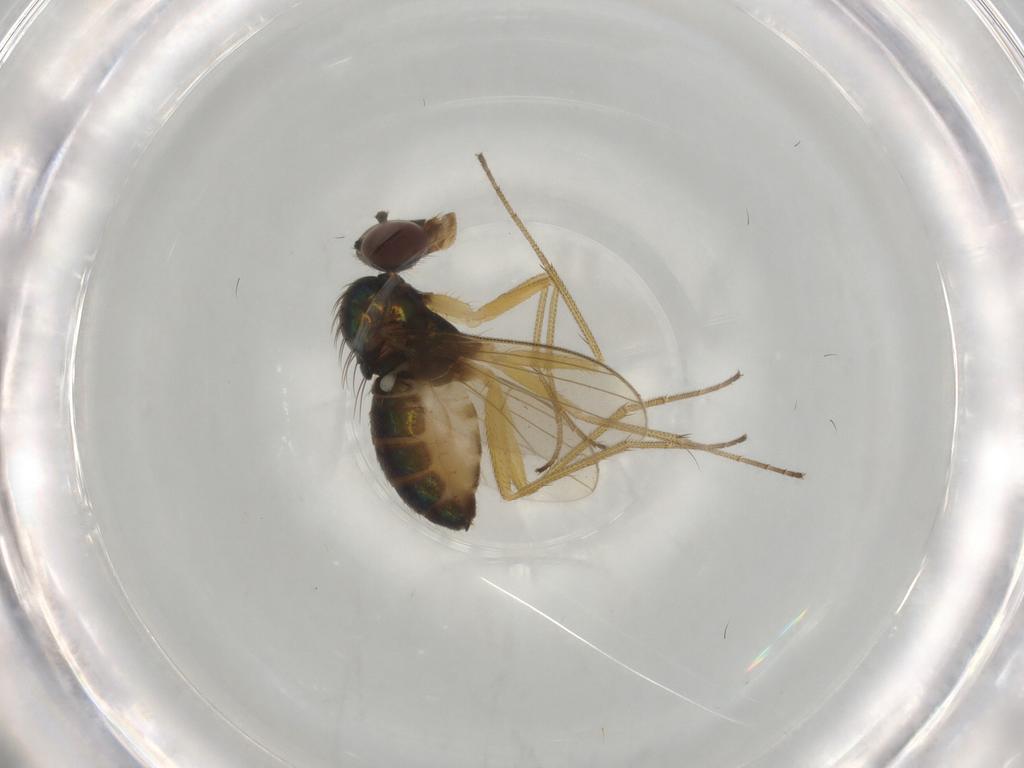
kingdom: Animalia
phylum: Arthropoda
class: Insecta
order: Diptera
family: Dolichopodidae
